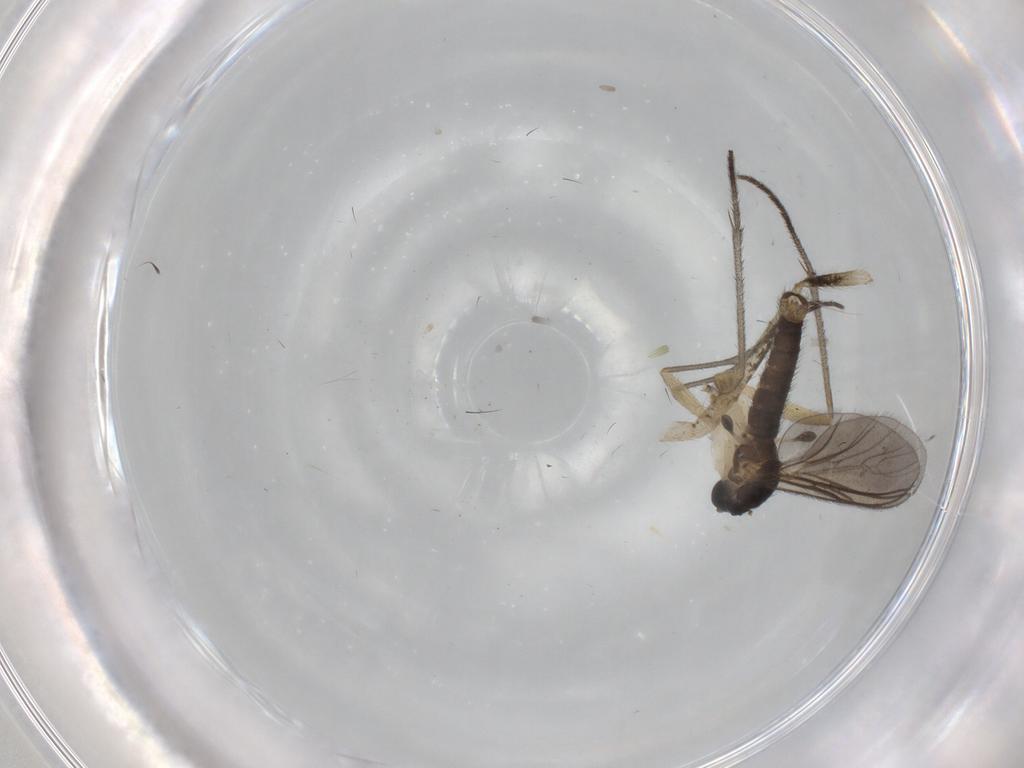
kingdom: Animalia
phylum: Arthropoda
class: Insecta
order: Diptera
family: Sciaridae
